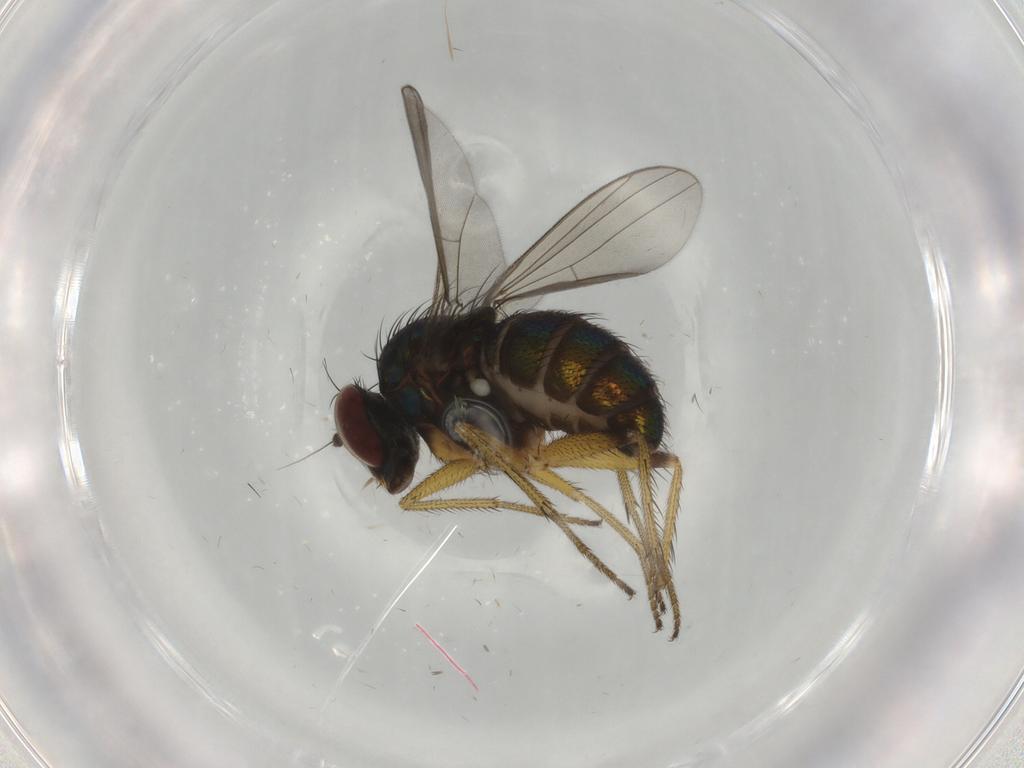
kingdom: Animalia
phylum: Arthropoda
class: Insecta
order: Diptera
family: Dolichopodidae
